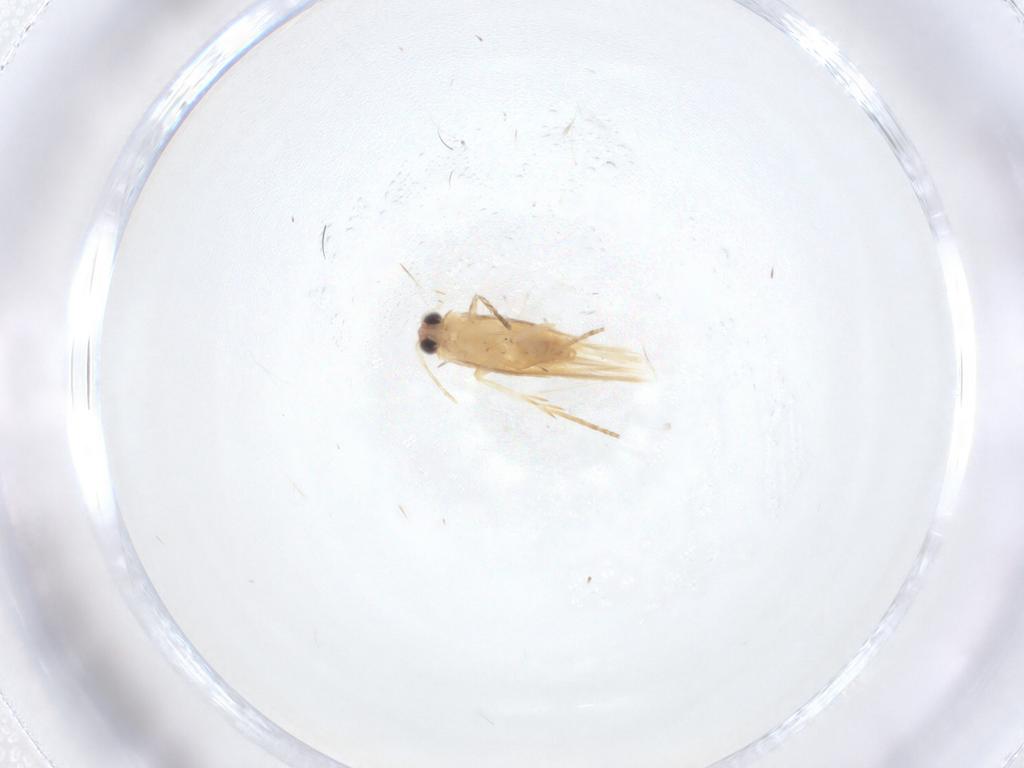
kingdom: Animalia
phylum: Arthropoda
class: Insecta
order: Lepidoptera
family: Nepticulidae
